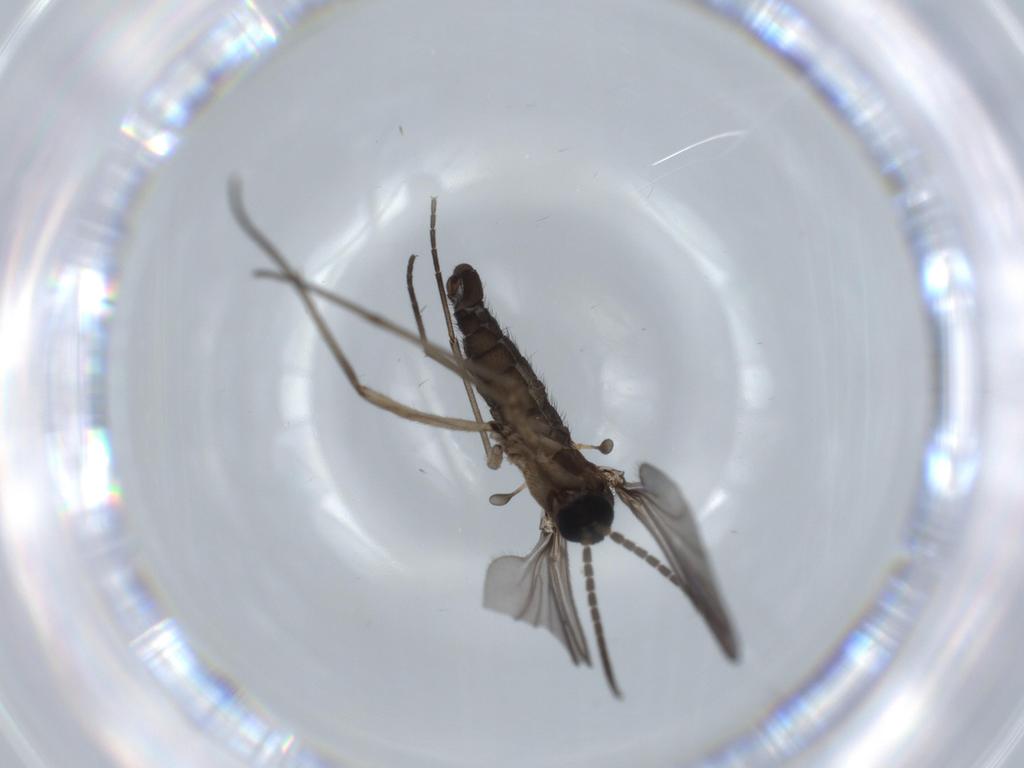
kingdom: Animalia
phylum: Arthropoda
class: Insecta
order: Diptera
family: Sciaridae
